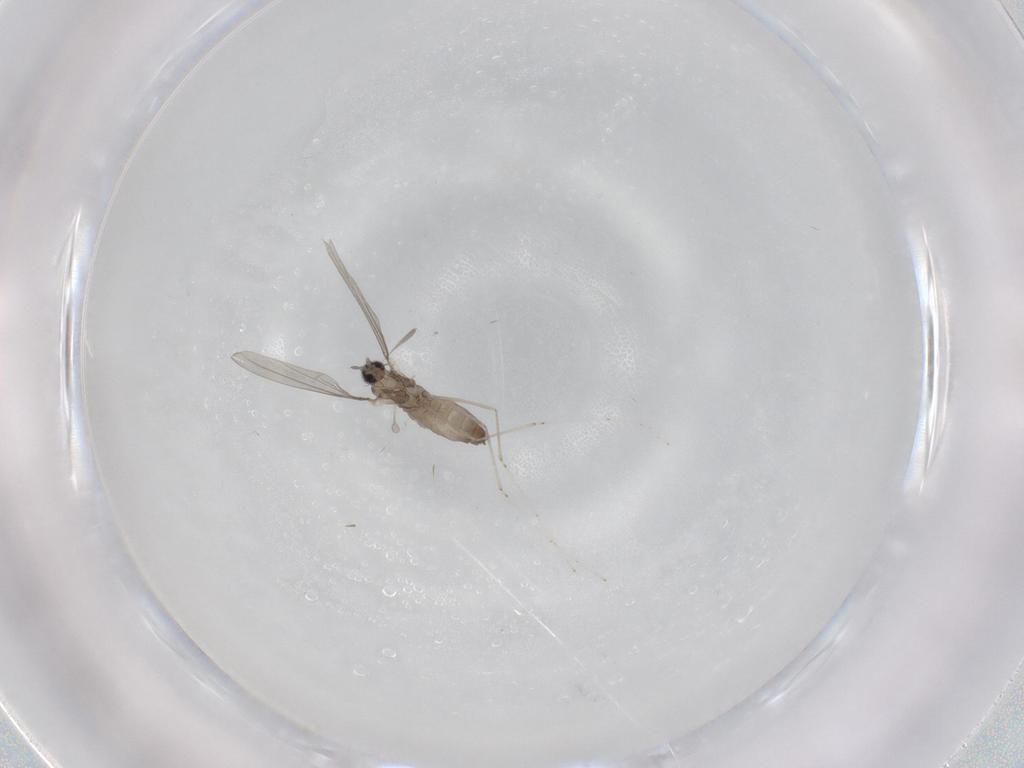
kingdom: Animalia
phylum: Arthropoda
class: Insecta
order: Diptera
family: Cecidomyiidae
